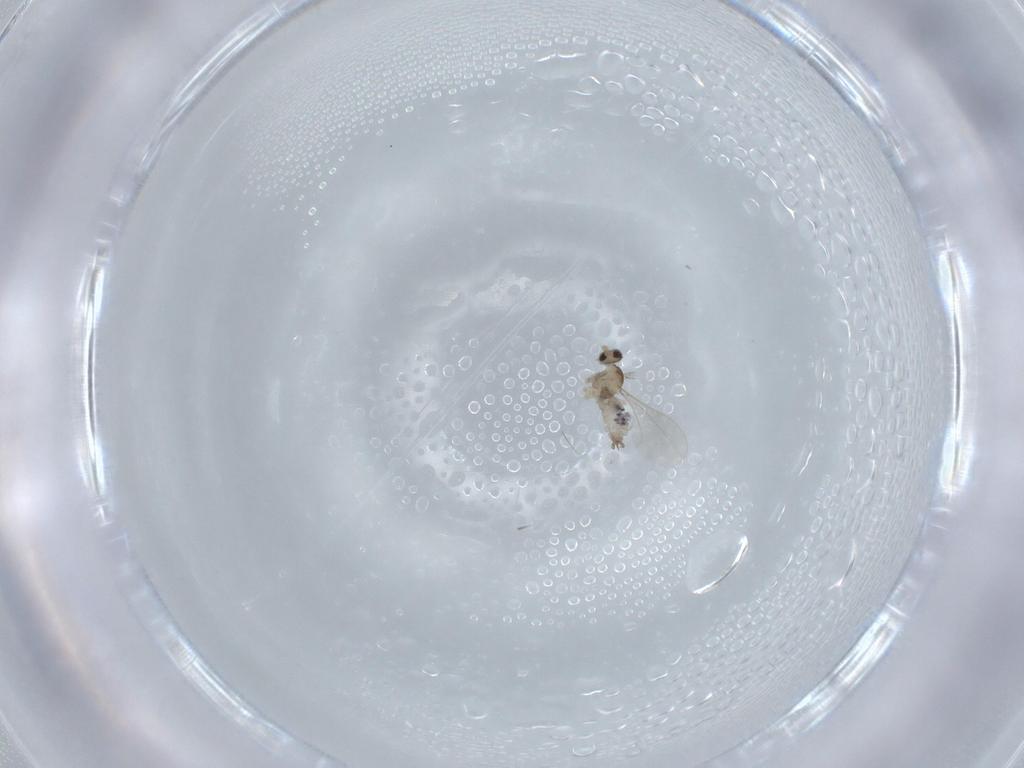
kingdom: Animalia
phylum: Arthropoda
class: Insecta
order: Diptera
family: Cecidomyiidae
